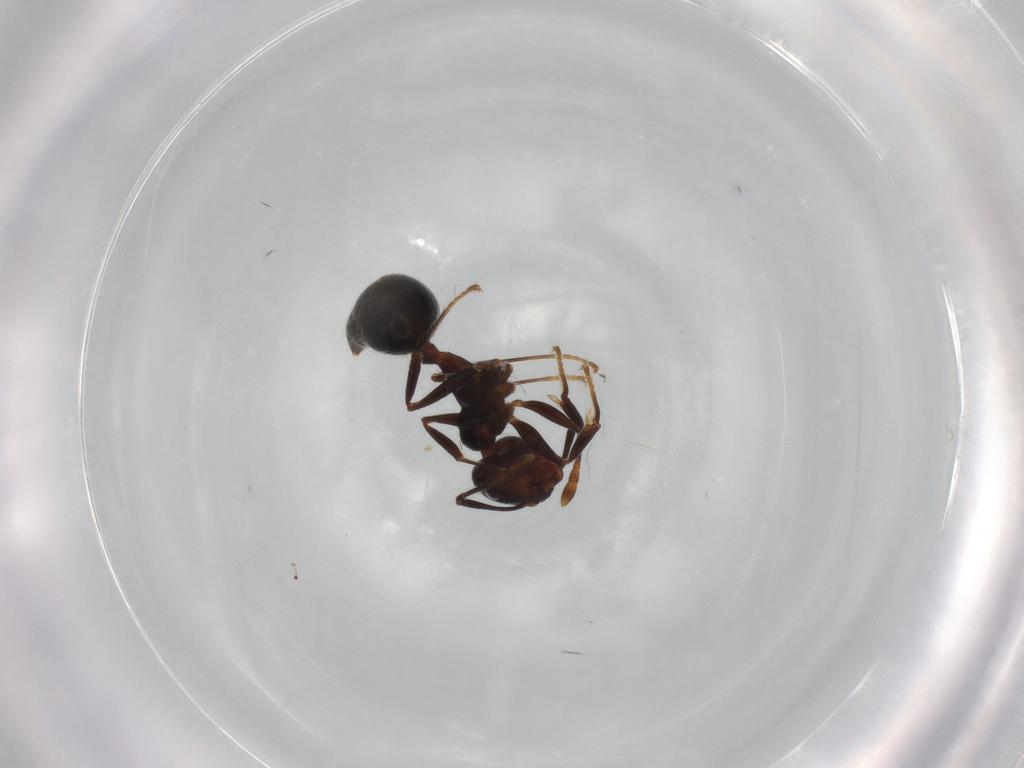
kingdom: Animalia
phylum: Arthropoda
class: Insecta
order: Hymenoptera
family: Formicidae
